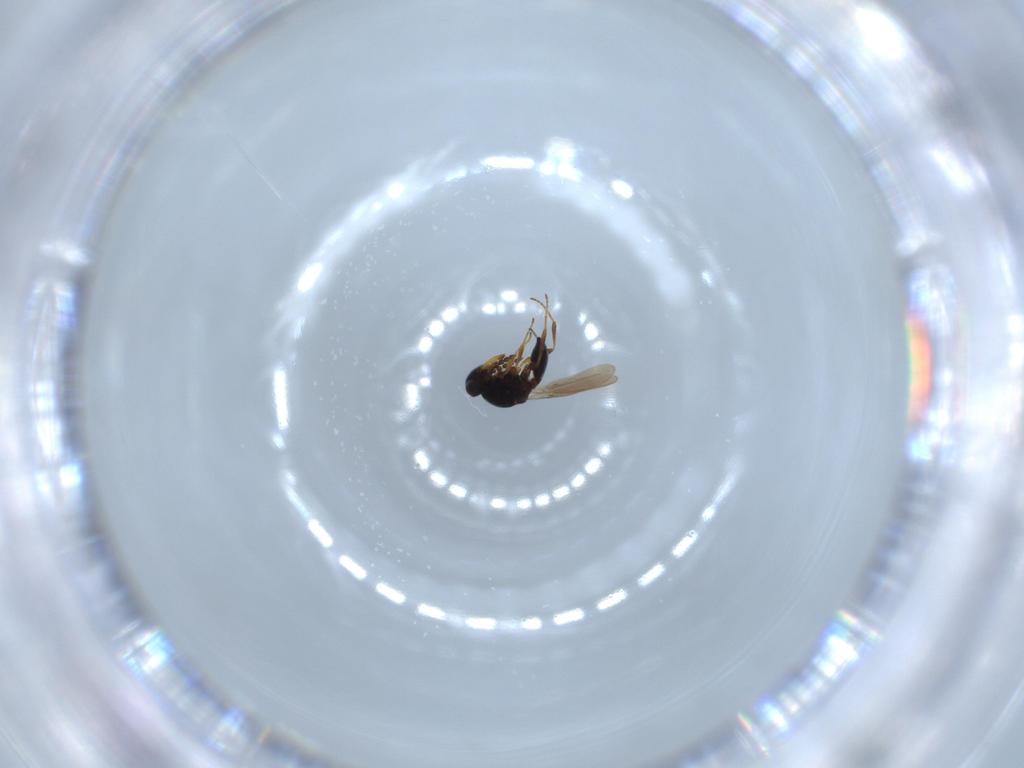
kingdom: Animalia
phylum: Arthropoda
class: Insecta
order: Hymenoptera
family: Platygastridae
